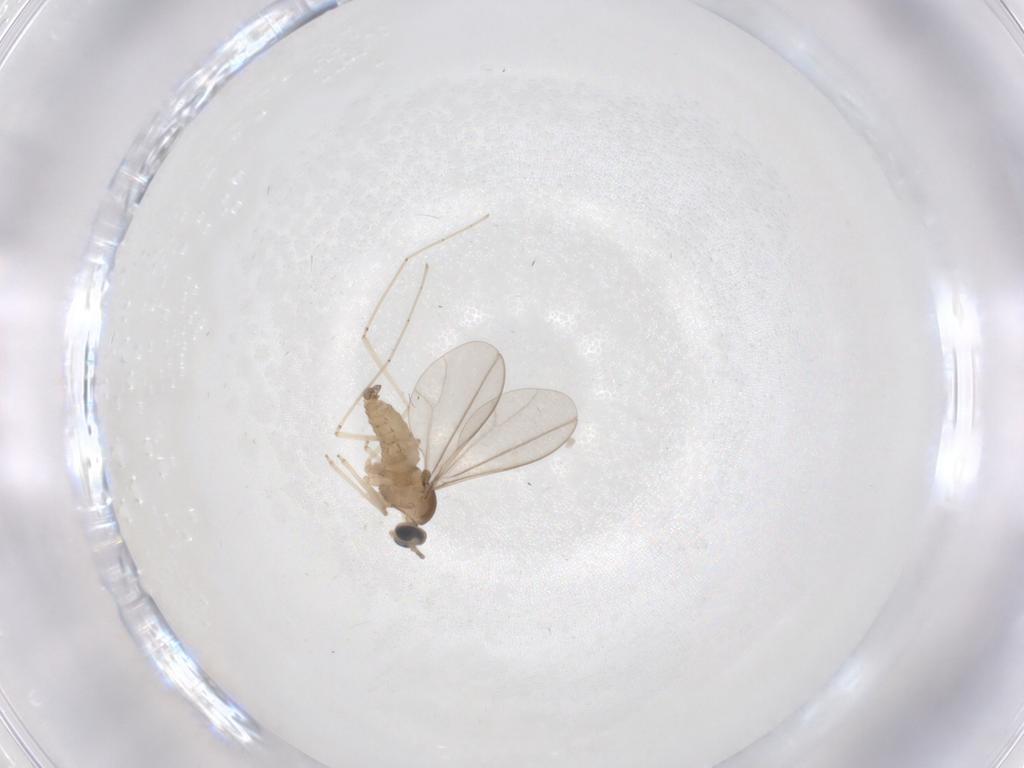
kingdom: Animalia
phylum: Arthropoda
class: Insecta
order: Diptera
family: Cecidomyiidae
